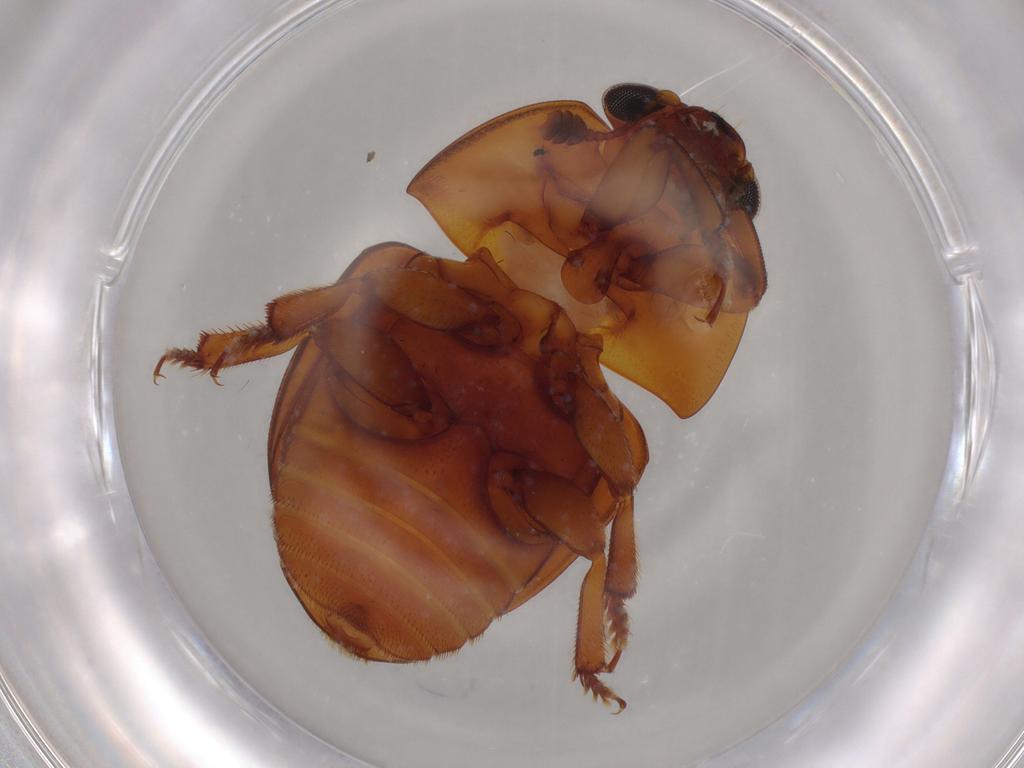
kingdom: Animalia
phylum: Arthropoda
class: Insecta
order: Coleoptera
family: Nitidulidae
